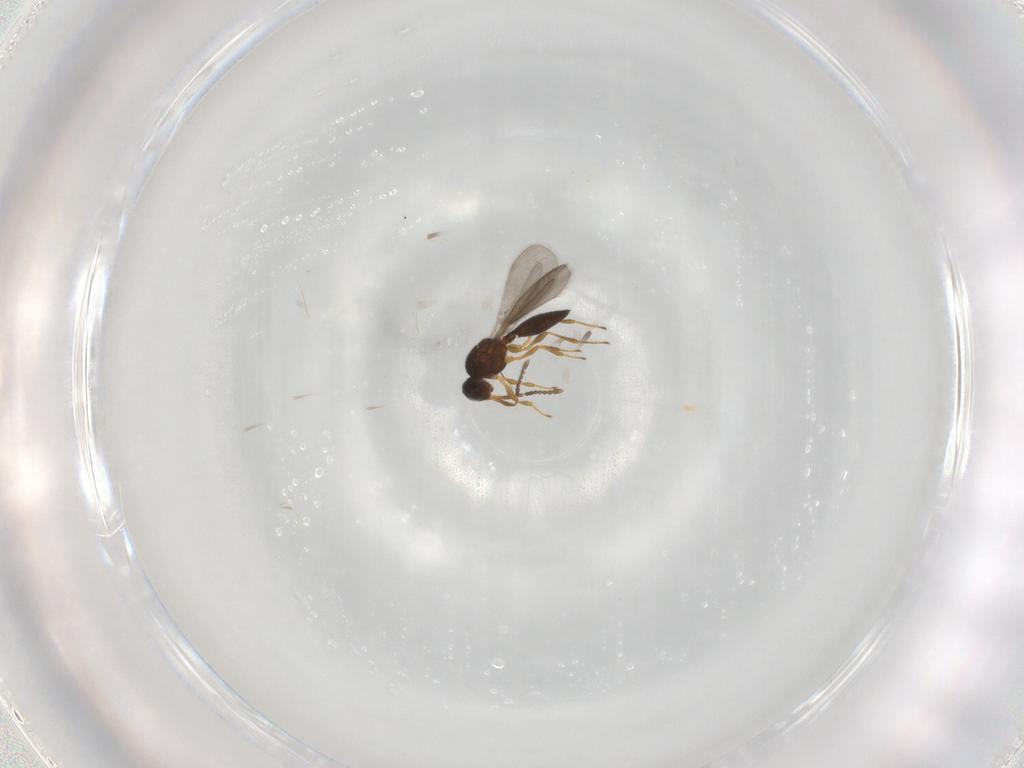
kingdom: Animalia
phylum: Arthropoda
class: Insecta
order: Hymenoptera
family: Platygastridae
